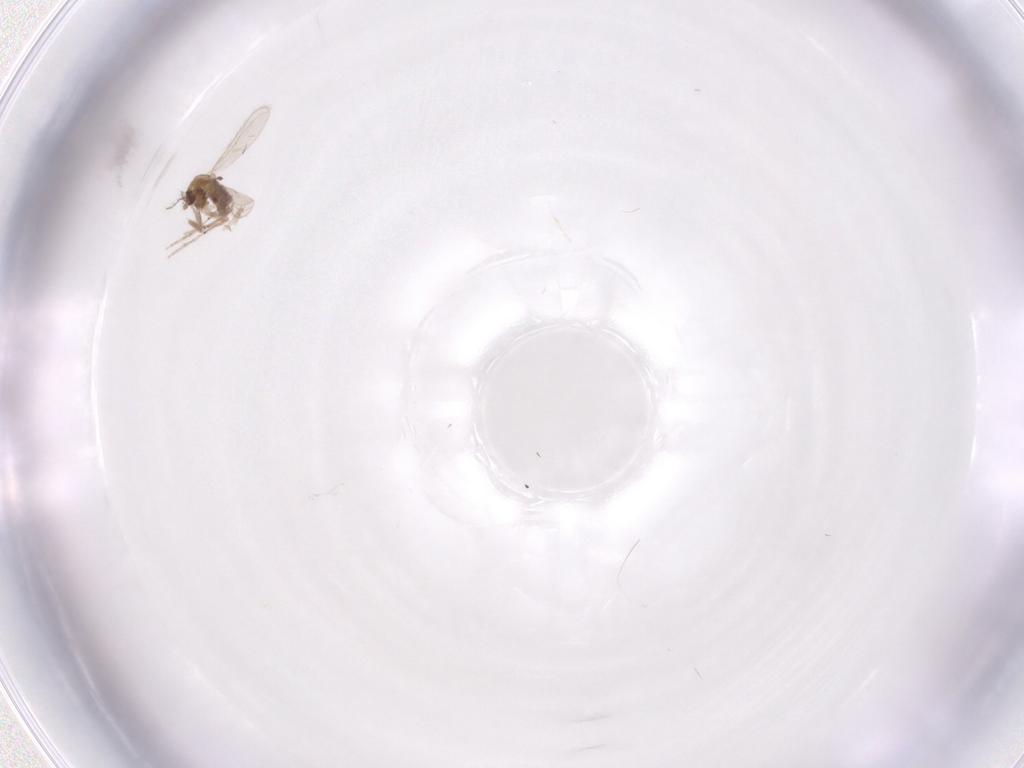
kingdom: Animalia
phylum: Arthropoda
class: Insecta
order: Diptera
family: Chironomidae
